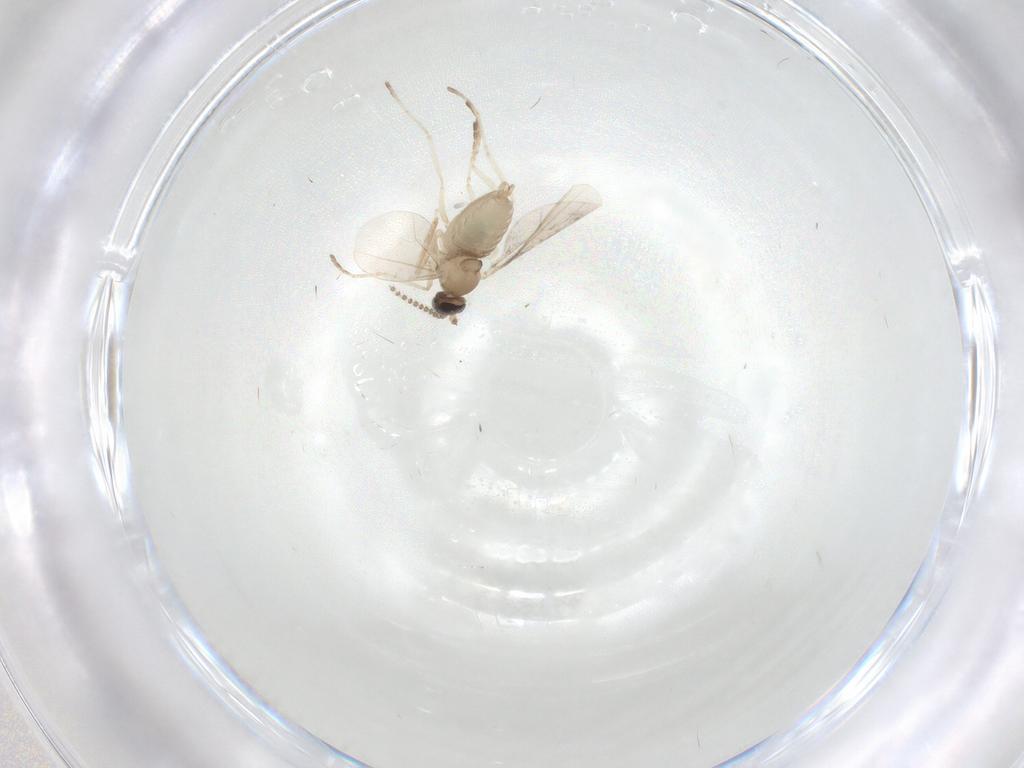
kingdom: Animalia
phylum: Arthropoda
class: Insecta
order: Diptera
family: Cecidomyiidae
